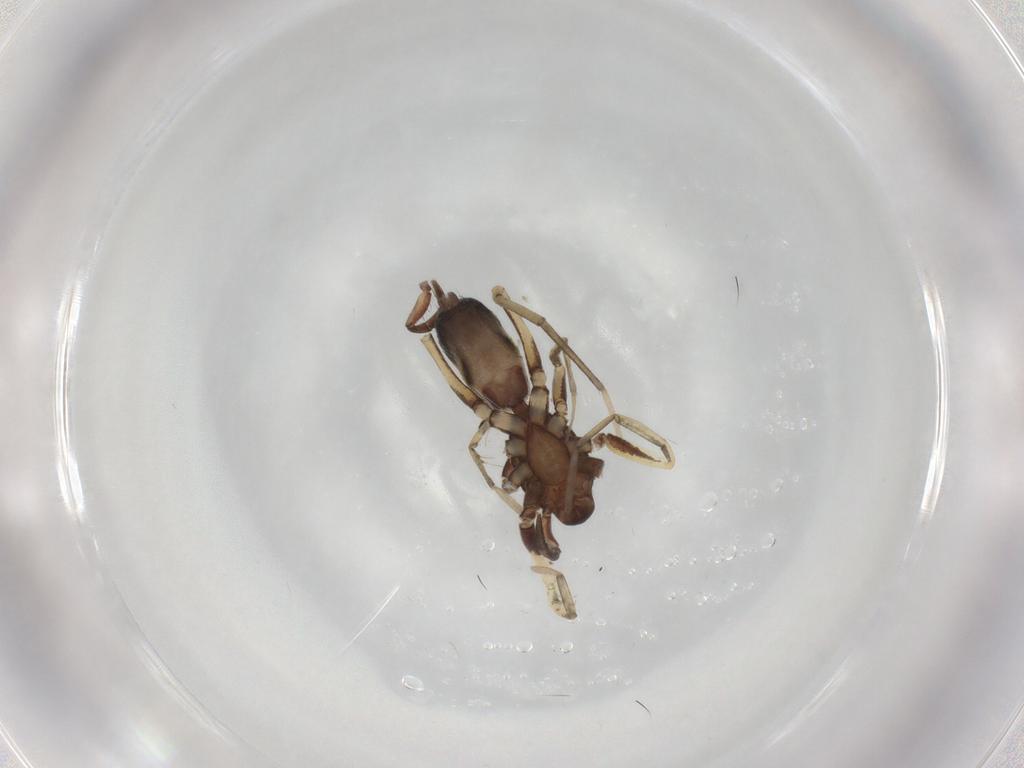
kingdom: Animalia
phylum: Arthropoda
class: Arachnida
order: Araneae
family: Gnaphosidae
